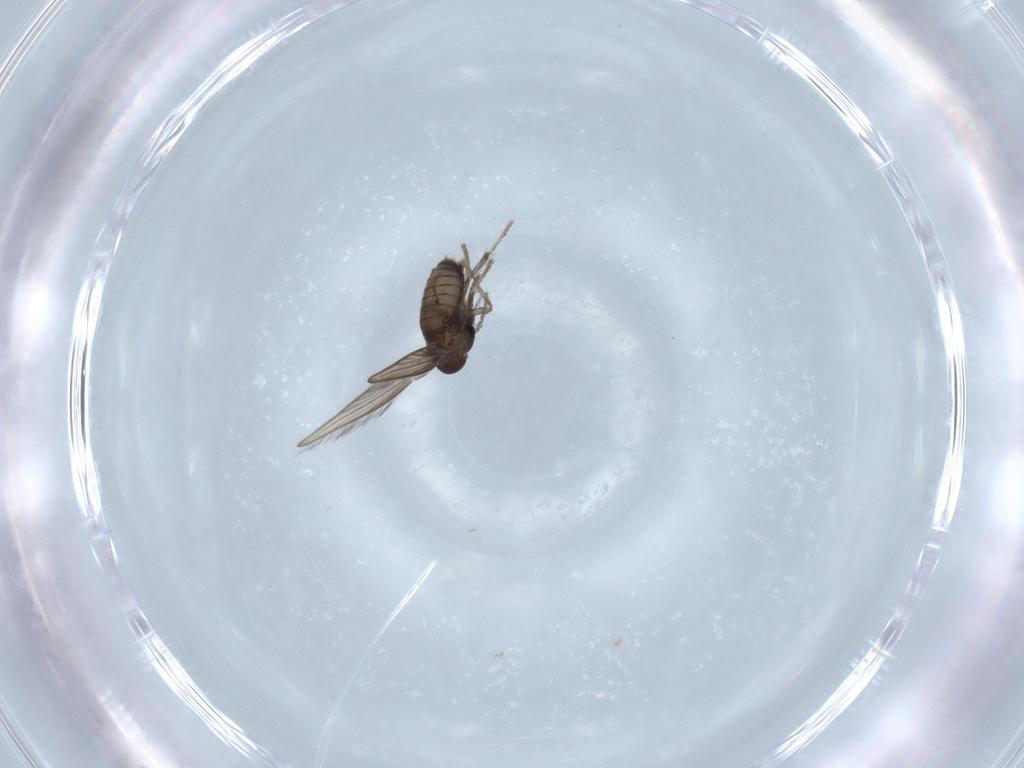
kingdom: Animalia
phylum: Arthropoda
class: Insecta
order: Diptera
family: Psychodidae
